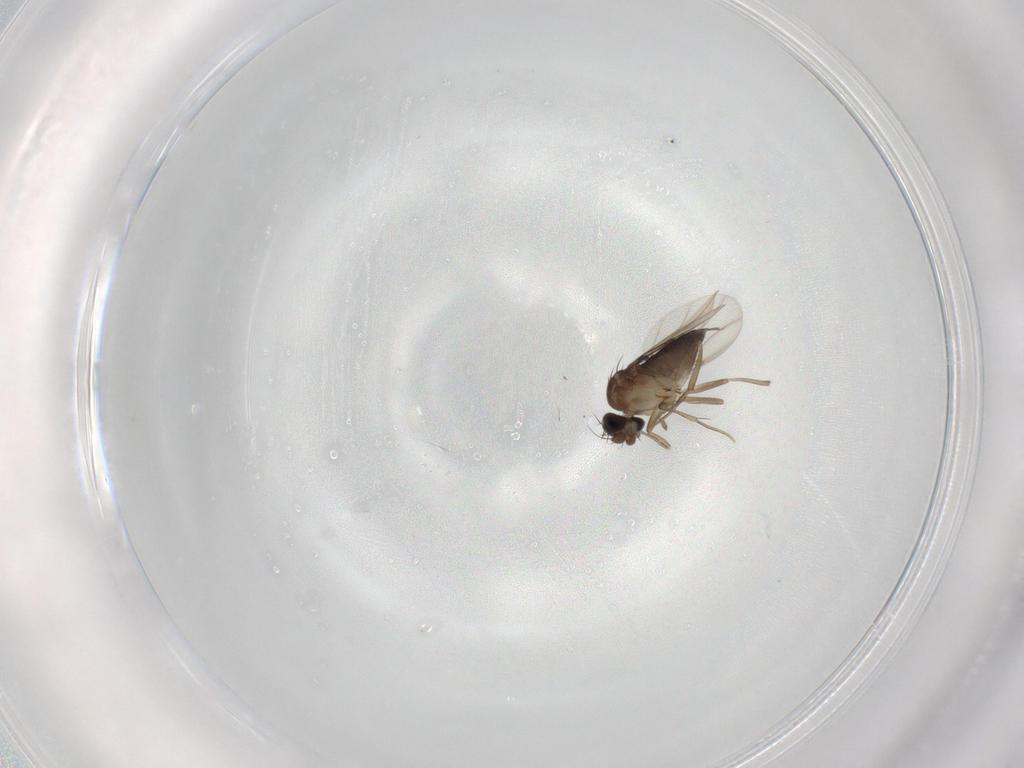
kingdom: Animalia
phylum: Arthropoda
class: Insecta
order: Diptera
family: Phoridae
